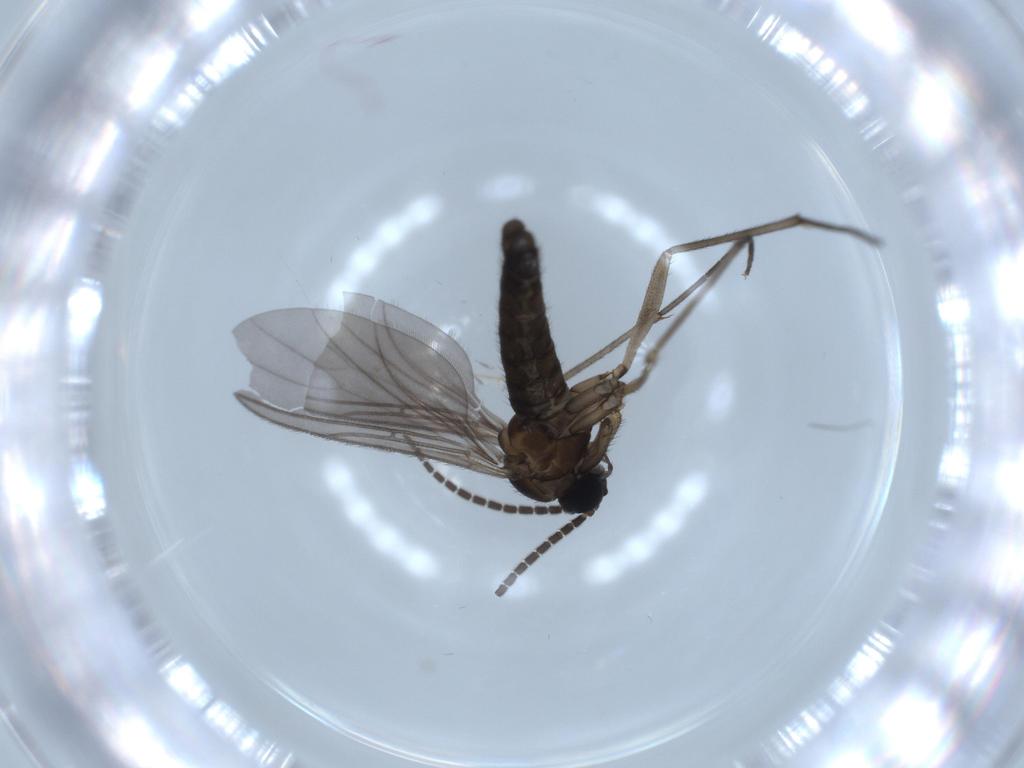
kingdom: Animalia
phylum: Arthropoda
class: Insecta
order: Diptera
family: Sciaridae
